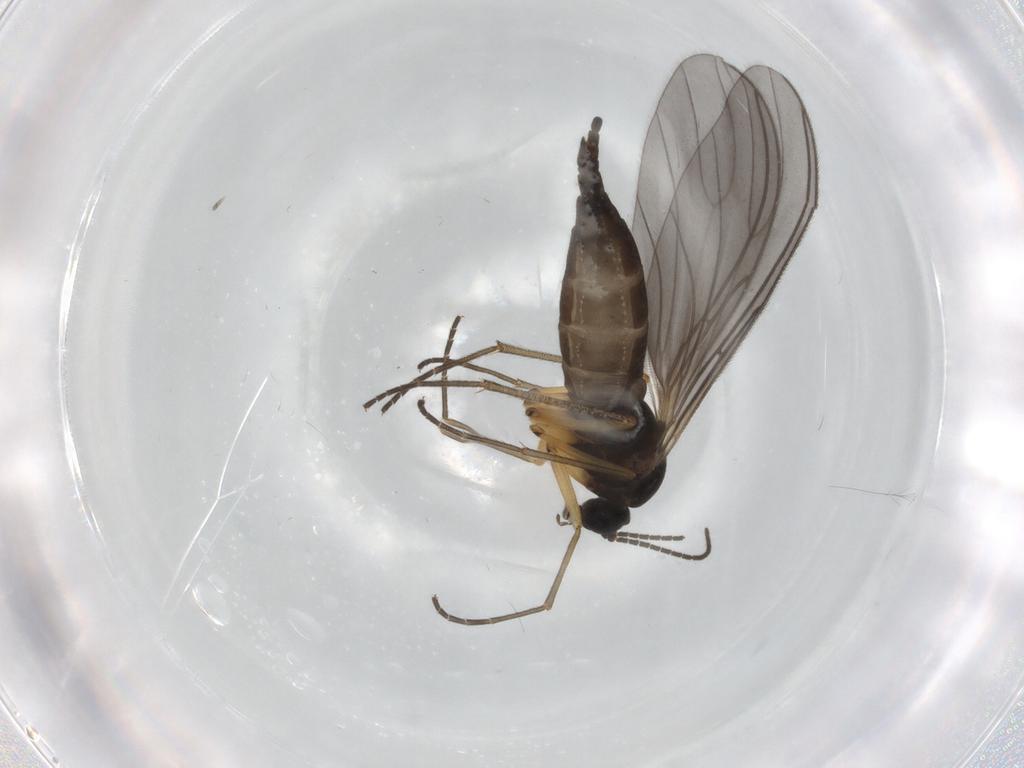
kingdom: Animalia
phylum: Arthropoda
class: Insecta
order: Diptera
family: Sciaridae
